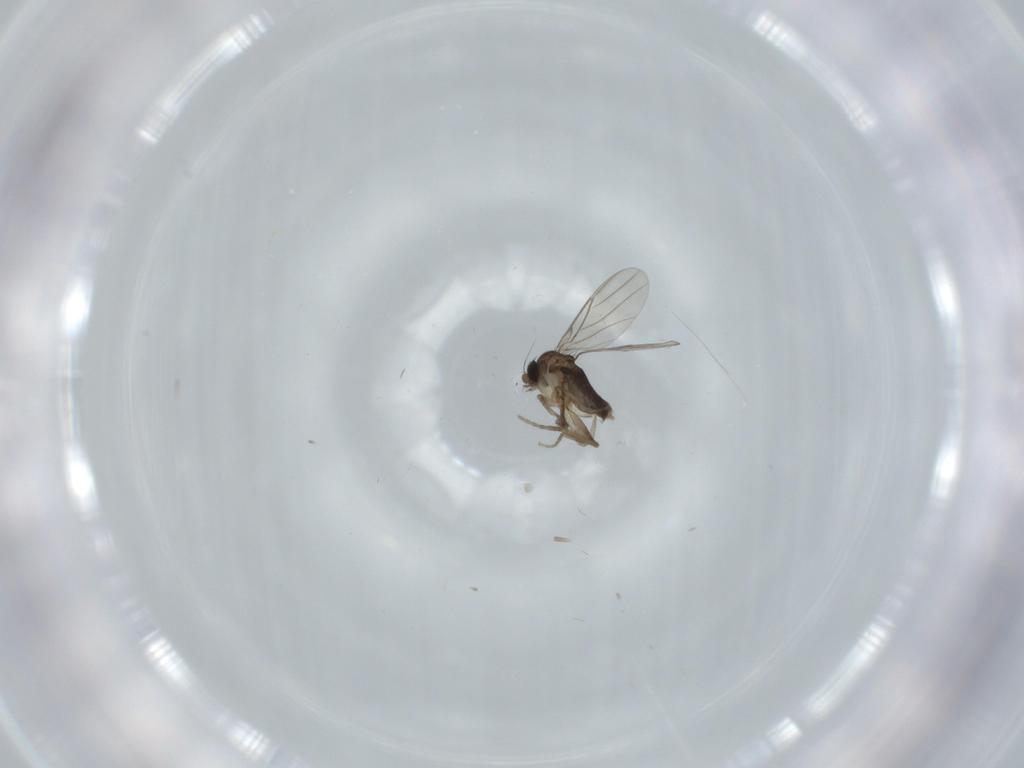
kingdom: Animalia
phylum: Arthropoda
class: Insecta
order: Diptera
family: Phoridae
